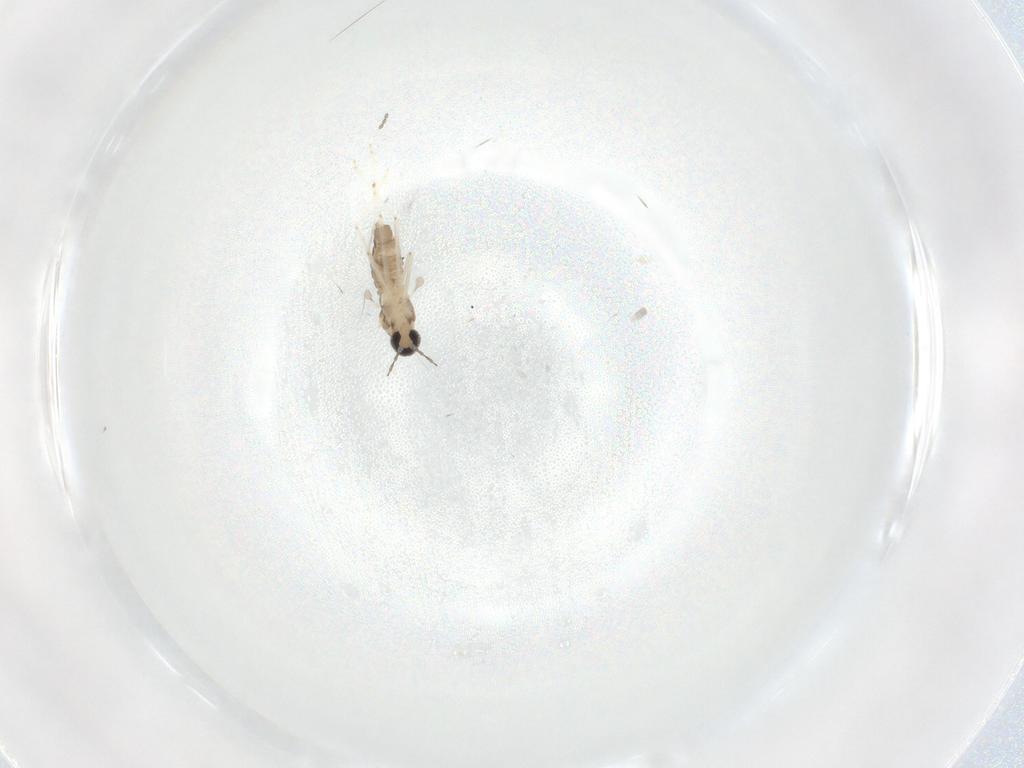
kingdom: Animalia
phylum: Arthropoda
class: Insecta
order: Diptera
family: Cecidomyiidae
